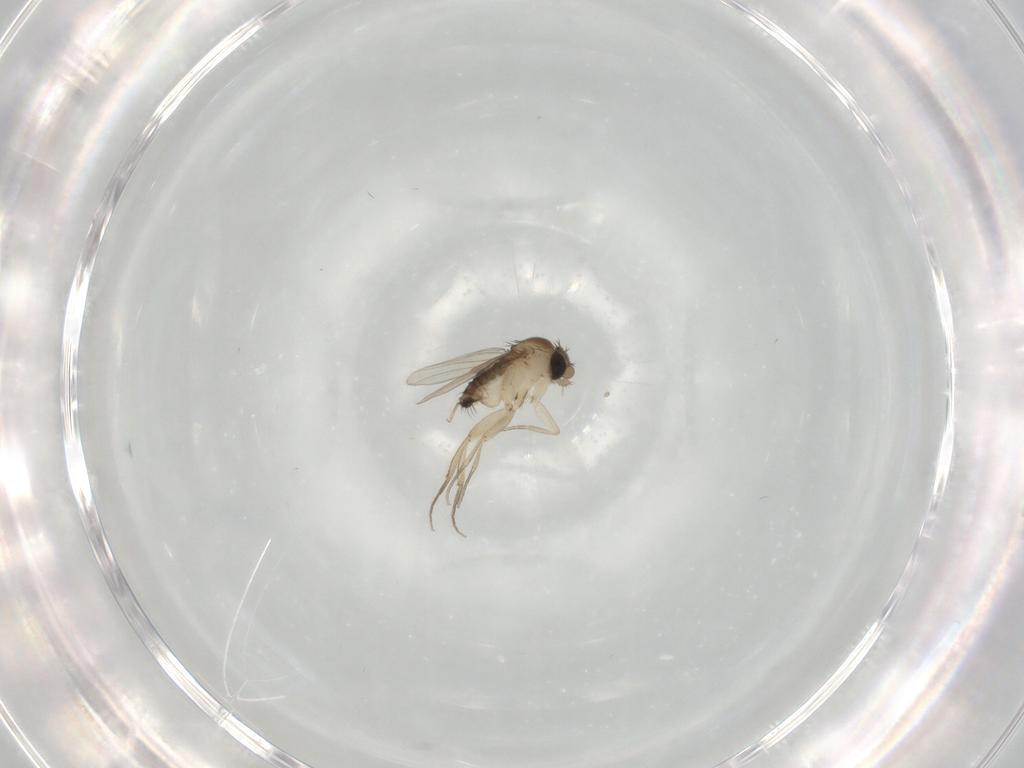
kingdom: Animalia
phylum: Arthropoda
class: Insecta
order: Diptera
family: Phoridae
